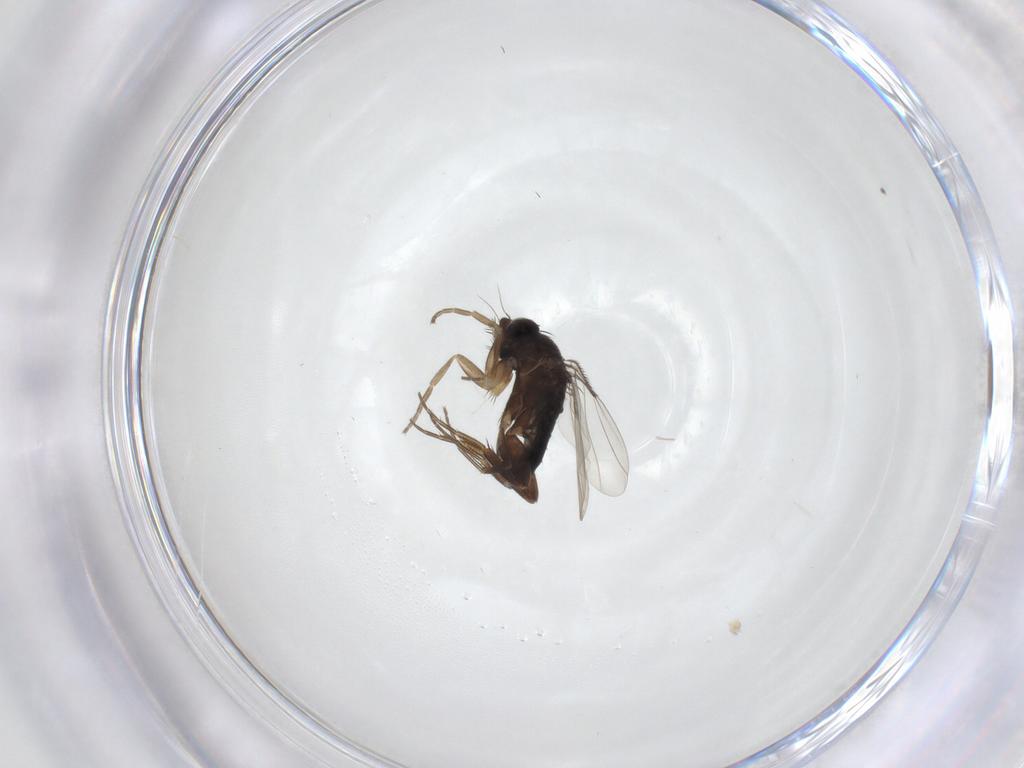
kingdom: Animalia
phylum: Arthropoda
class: Insecta
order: Diptera
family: Phoridae
